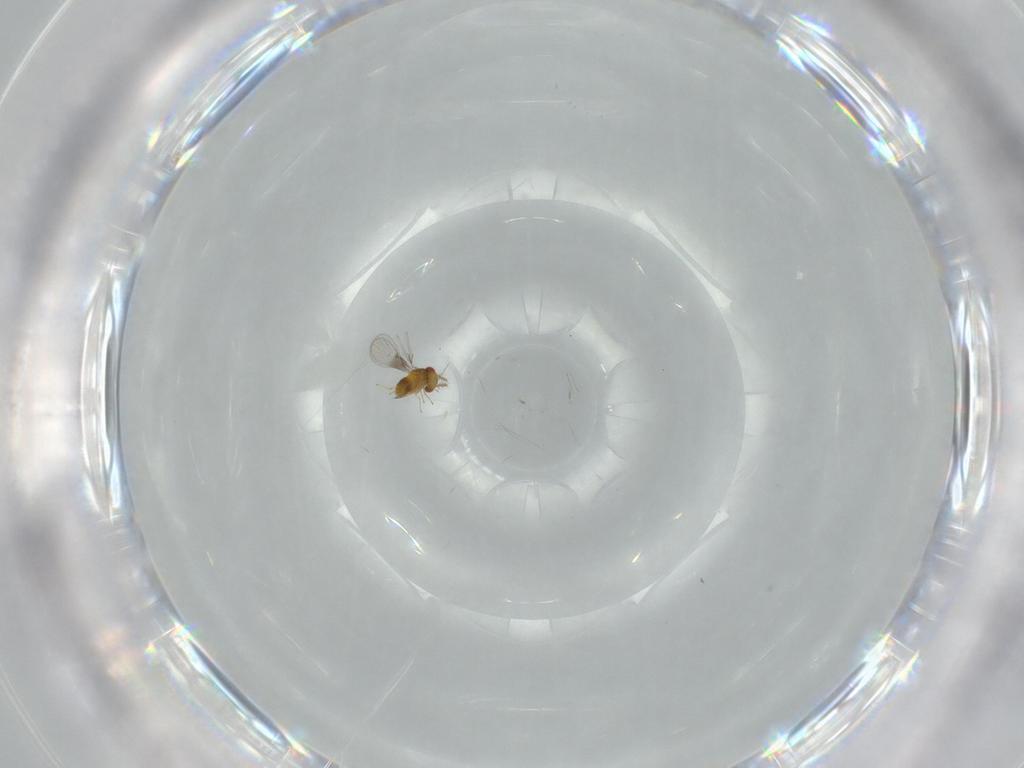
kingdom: Animalia
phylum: Arthropoda
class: Insecta
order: Hymenoptera
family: Trichogrammatidae
